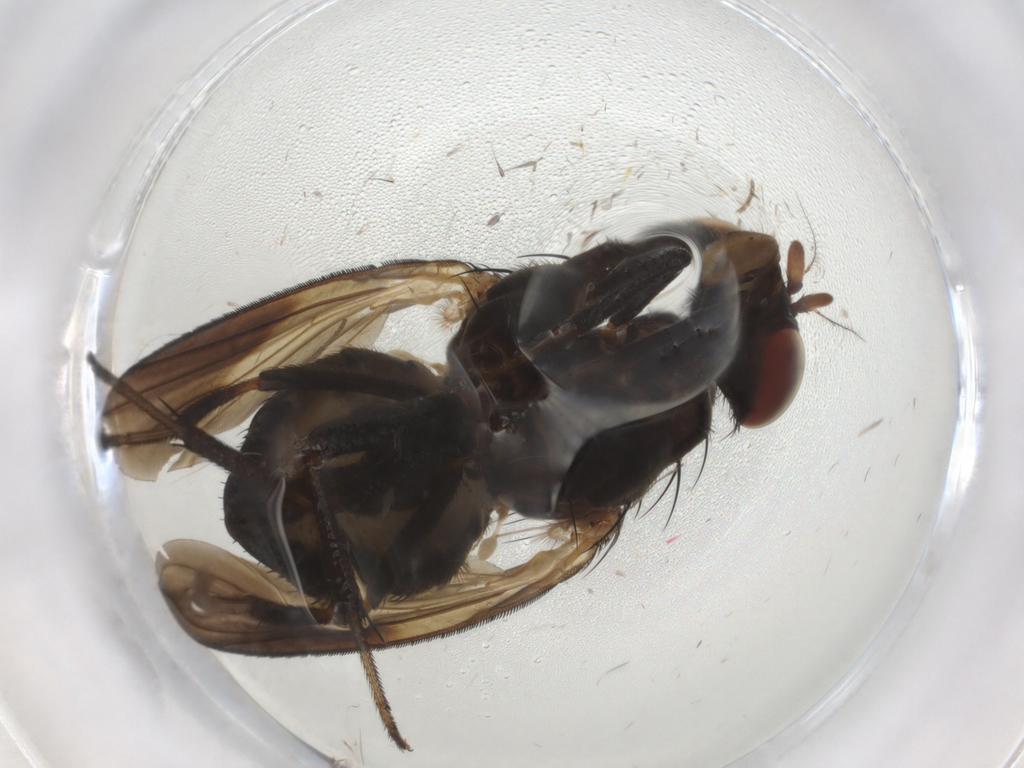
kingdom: Animalia
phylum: Arthropoda
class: Insecta
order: Diptera
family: Lauxaniidae
